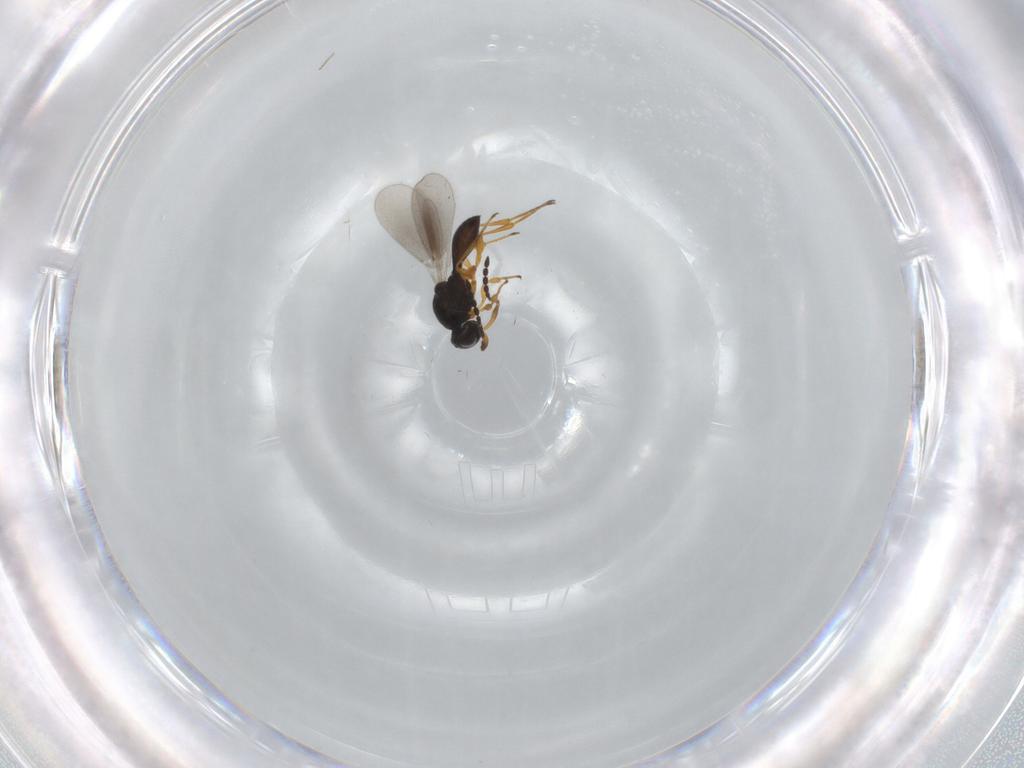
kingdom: Animalia
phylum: Arthropoda
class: Insecta
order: Hymenoptera
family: Platygastridae
